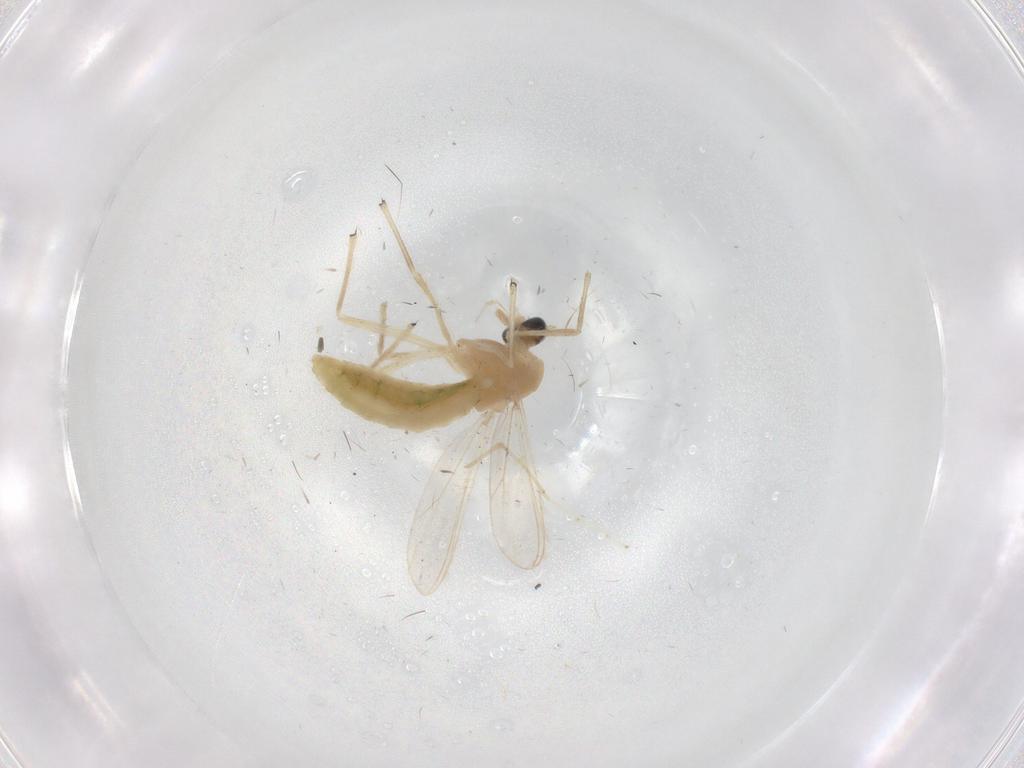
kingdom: Animalia
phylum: Arthropoda
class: Insecta
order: Diptera
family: Chironomidae
